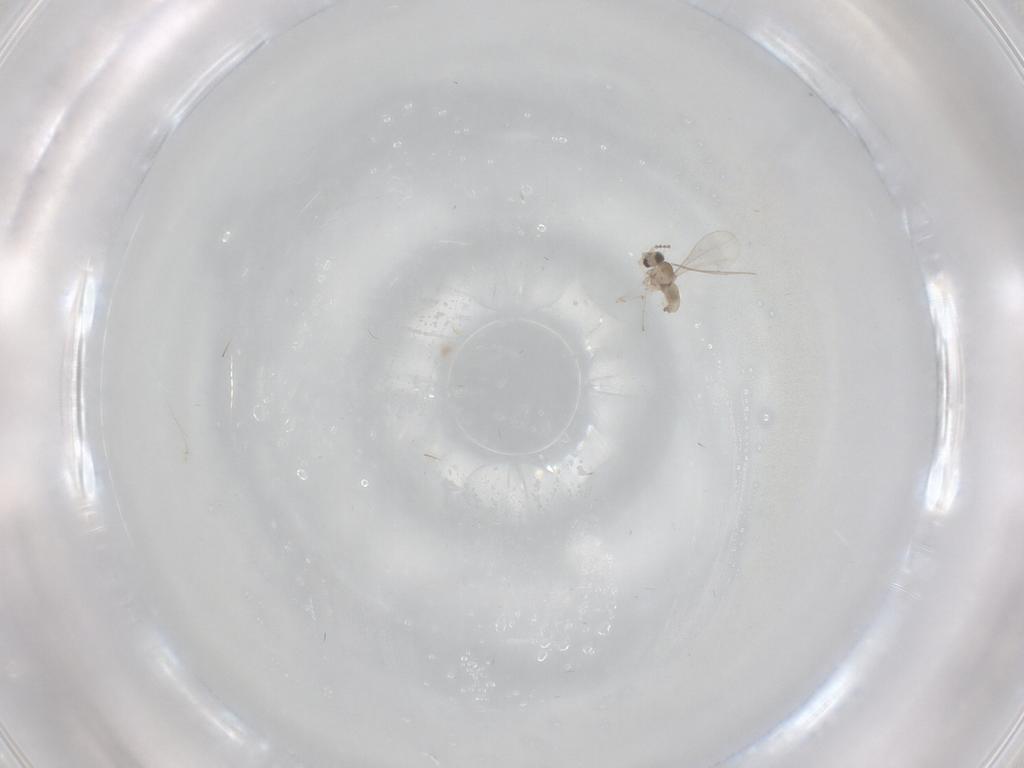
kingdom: Animalia
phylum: Arthropoda
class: Insecta
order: Diptera
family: Cecidomyiidae
